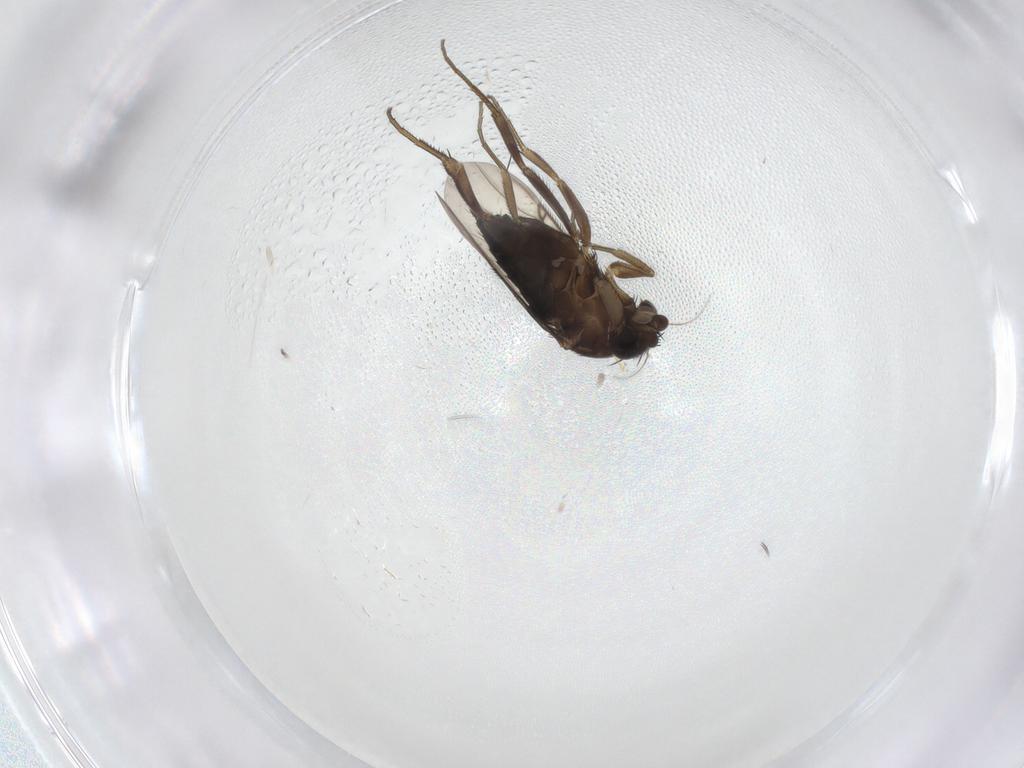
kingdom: Animalia
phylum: Arthropoda
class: Insecta
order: Diptera
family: Phoridae
